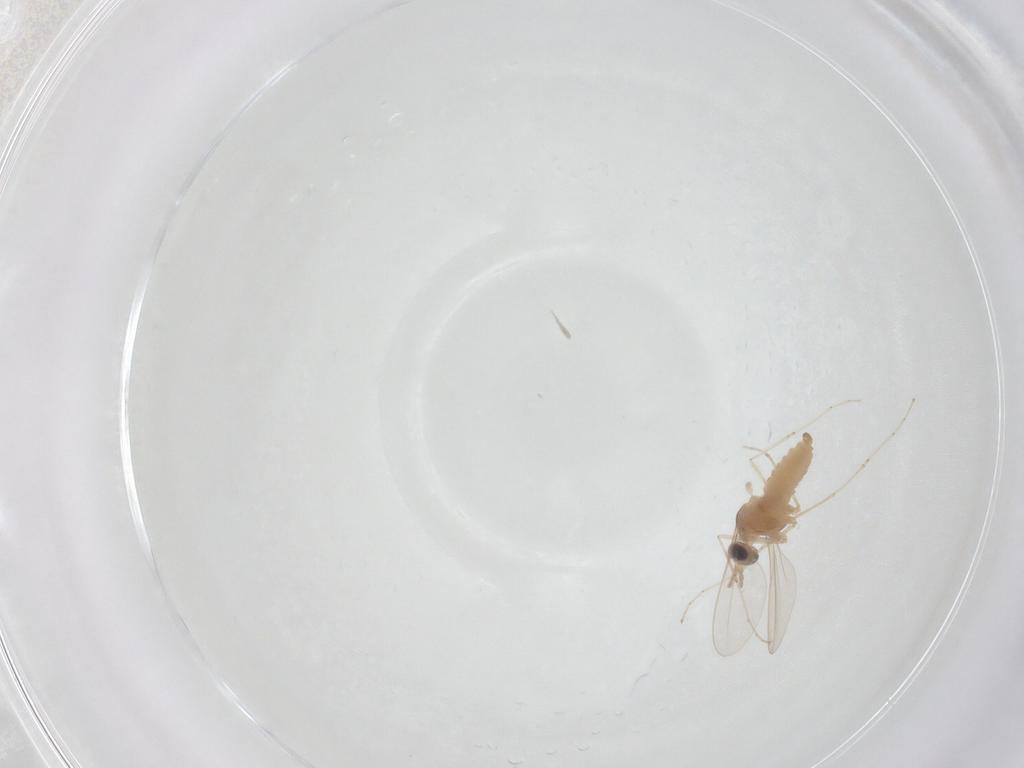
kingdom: Animalia
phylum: Arthropoda
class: Insecta
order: Diptera
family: Cecidomyiidae
